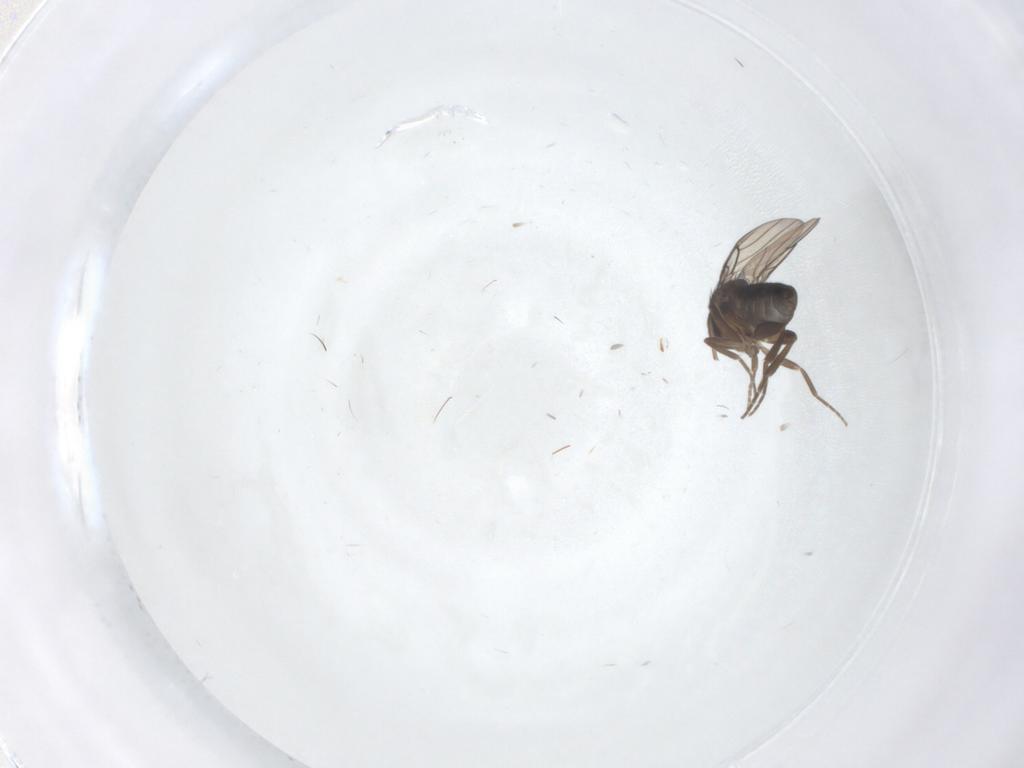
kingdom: Animalia
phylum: Arthropoda
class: Insecta
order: Diptera
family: Phoridae
